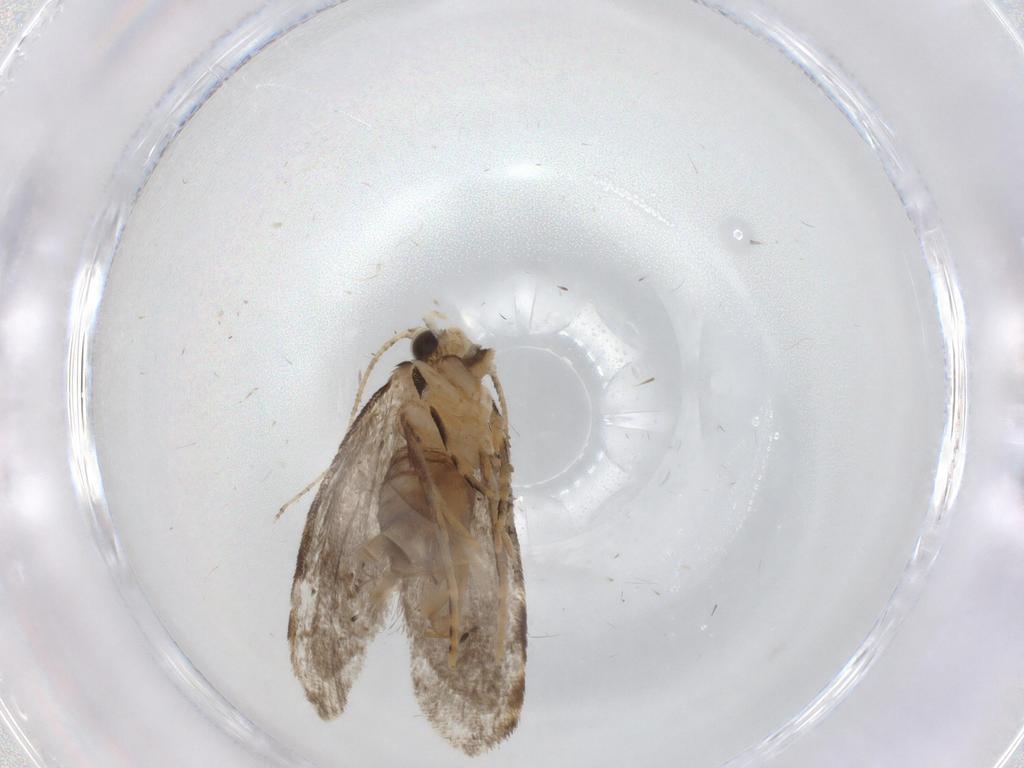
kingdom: Animalia
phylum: Arthropoda
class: Insecta
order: Lepidoptera
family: Tineidae
